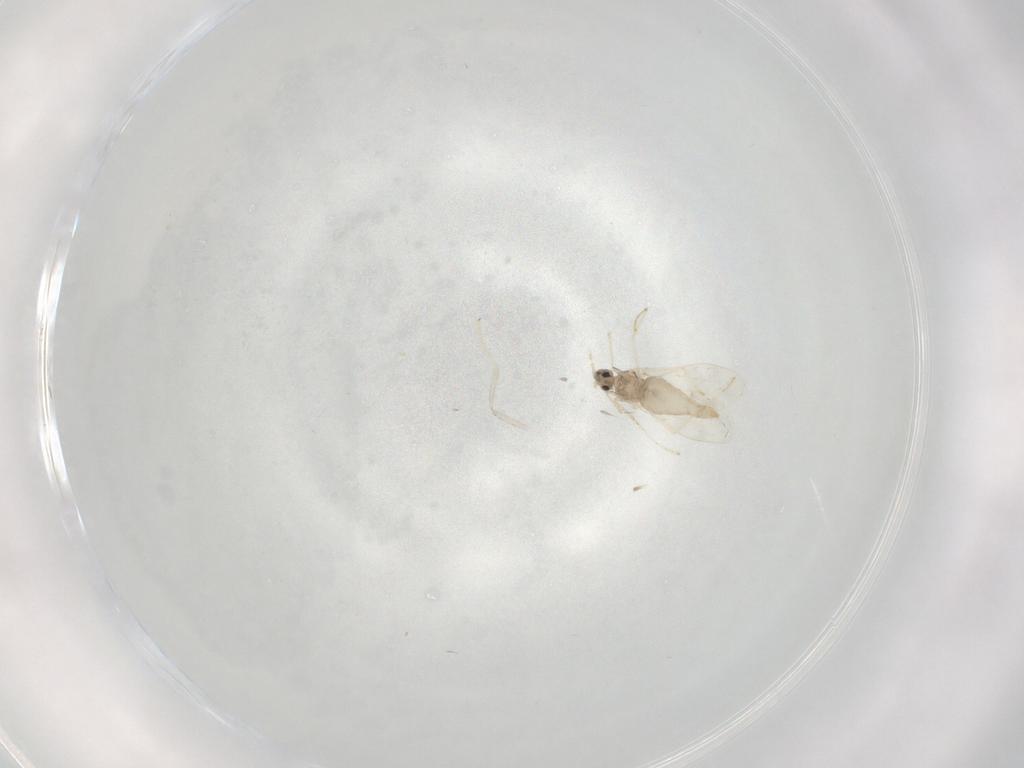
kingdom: Animalia
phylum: Arthropoda
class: Insecta
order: Diptera
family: Cecidomyiidae
